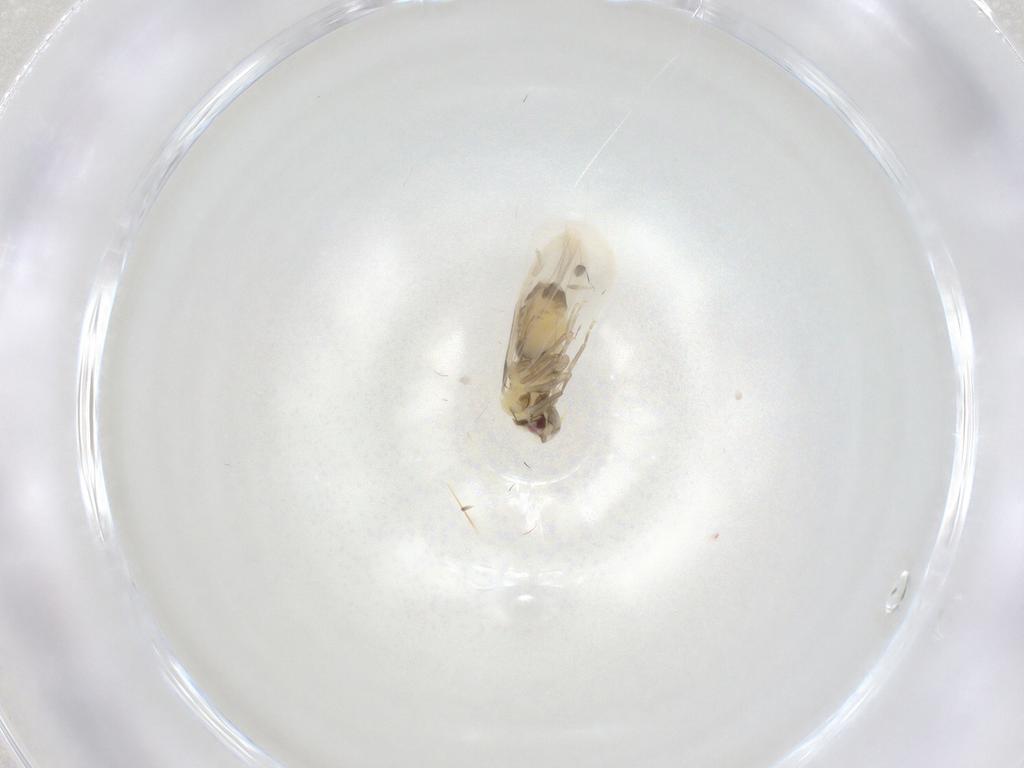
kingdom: Animalia
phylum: Arthropoda
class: Insecta
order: Hemiptera
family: Aleyrodidae
